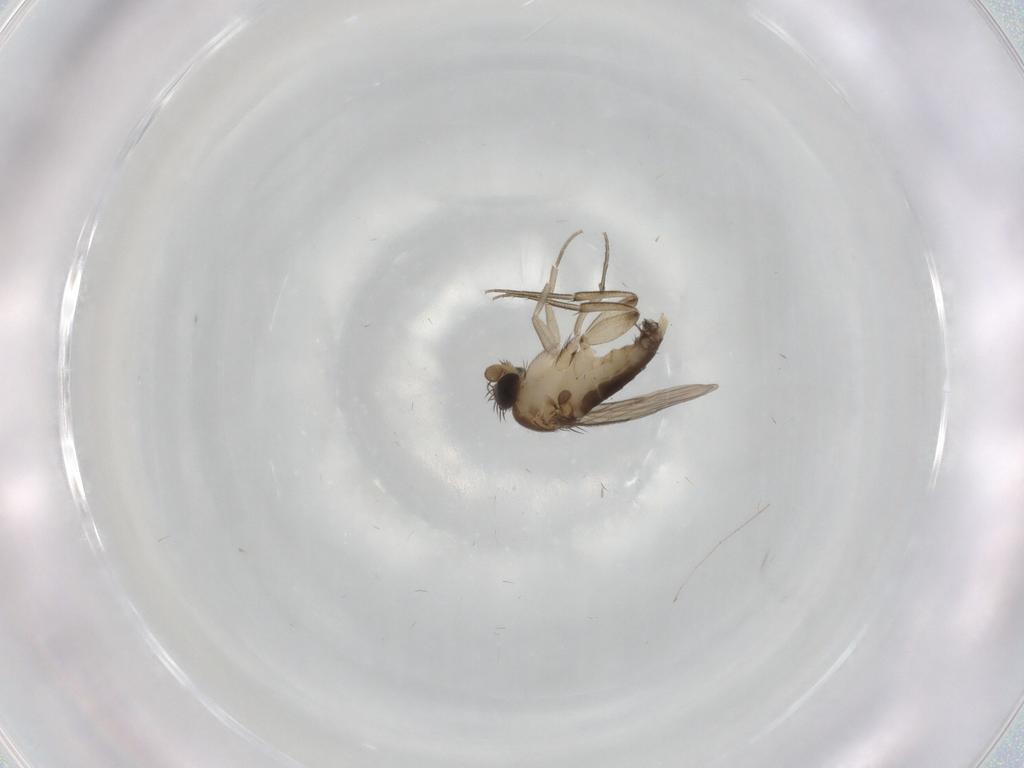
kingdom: Animalia
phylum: Arthropoda
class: Insecta
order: Diptera
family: Phoridae
